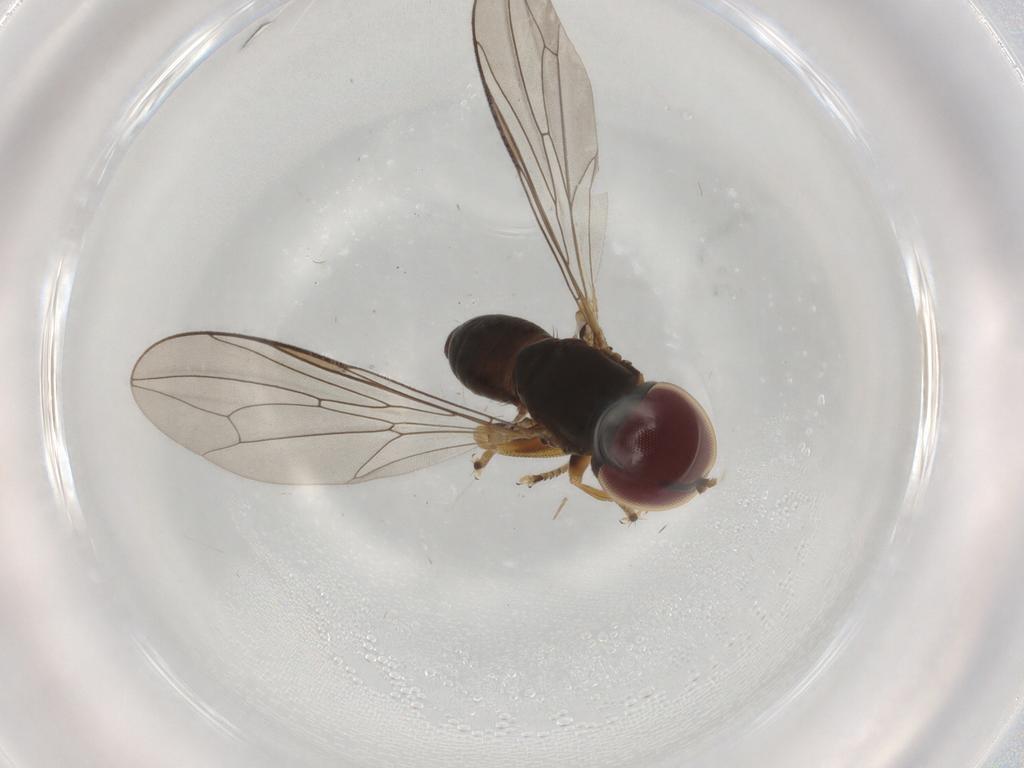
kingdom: Animalia
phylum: Arthropoda
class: Insecta
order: Diptera
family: Pipunculidae
